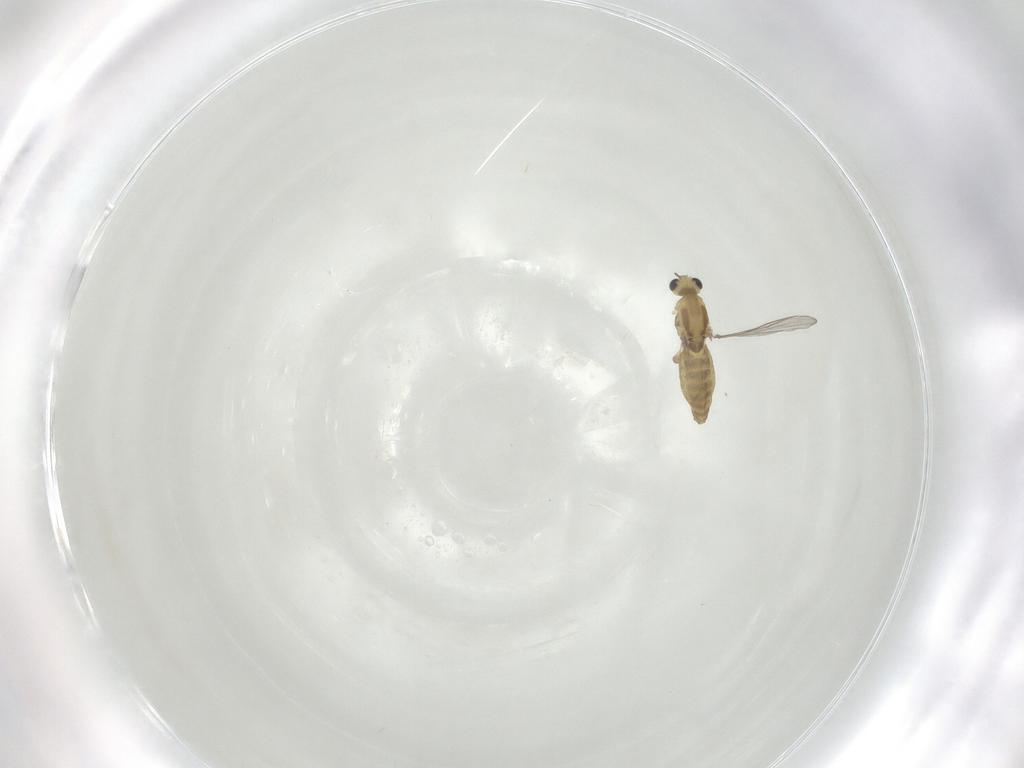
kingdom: Animalia
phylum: Arthropoda
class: Insecta
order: Diptera
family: Chironomidae
